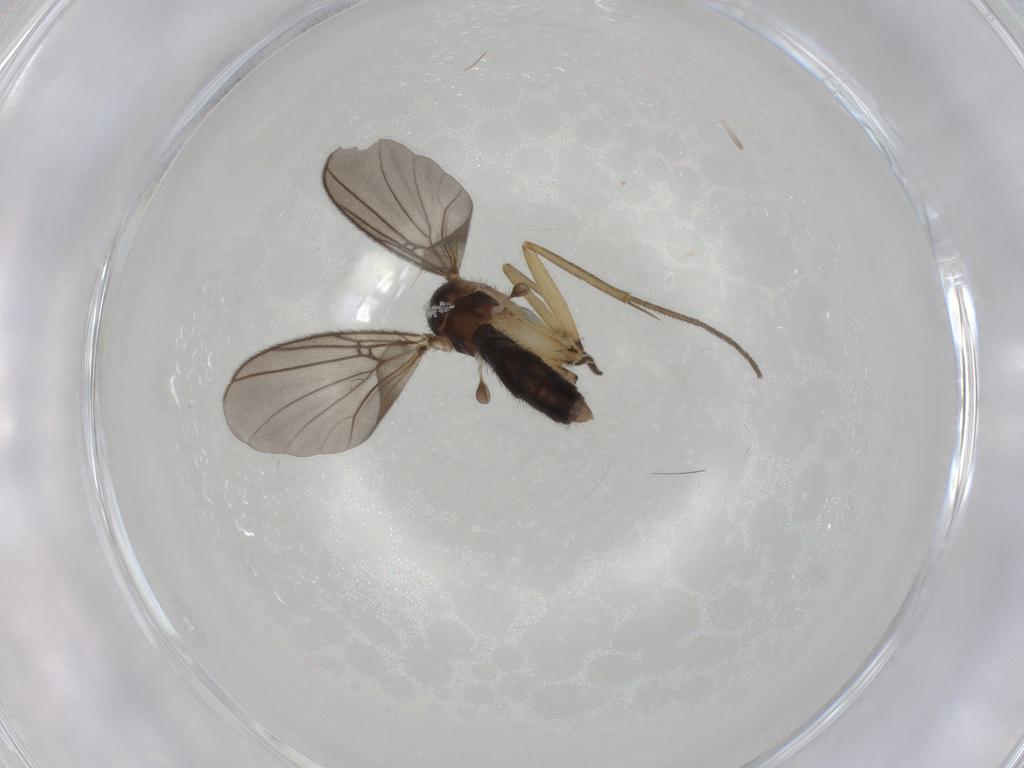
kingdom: Animalia
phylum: Arthropoda
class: Insecta
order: Diptera
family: Mycetophilidae
